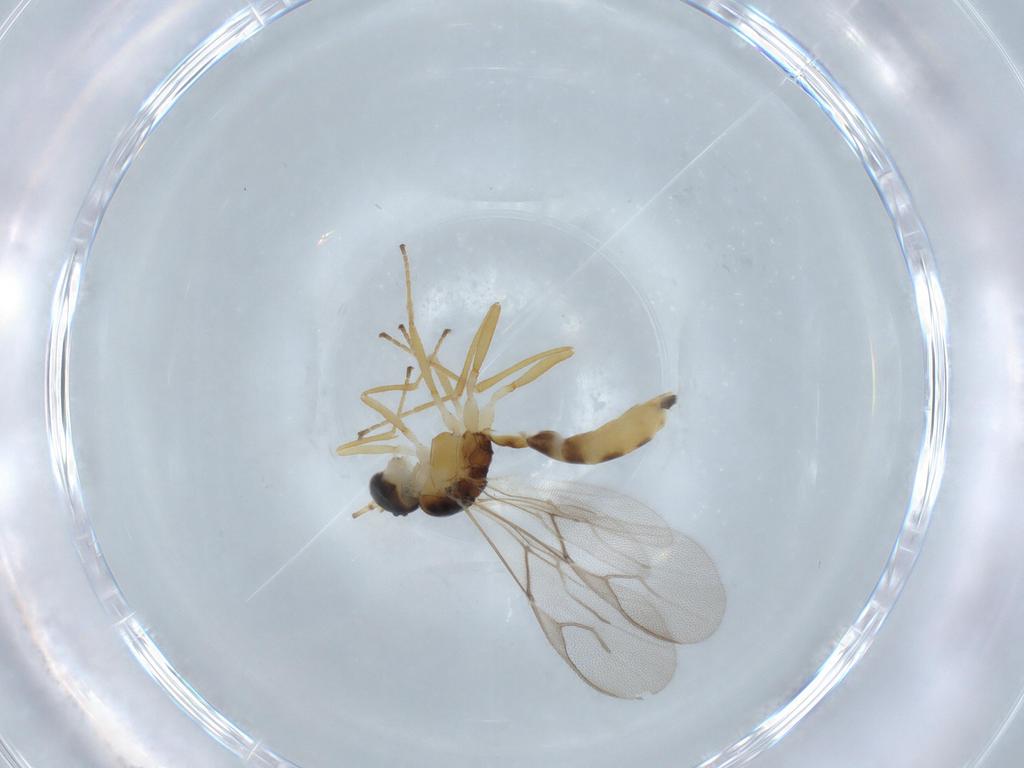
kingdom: Animalia
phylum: Arthropoda
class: Insecta
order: Hymenoptera
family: Braconidae
